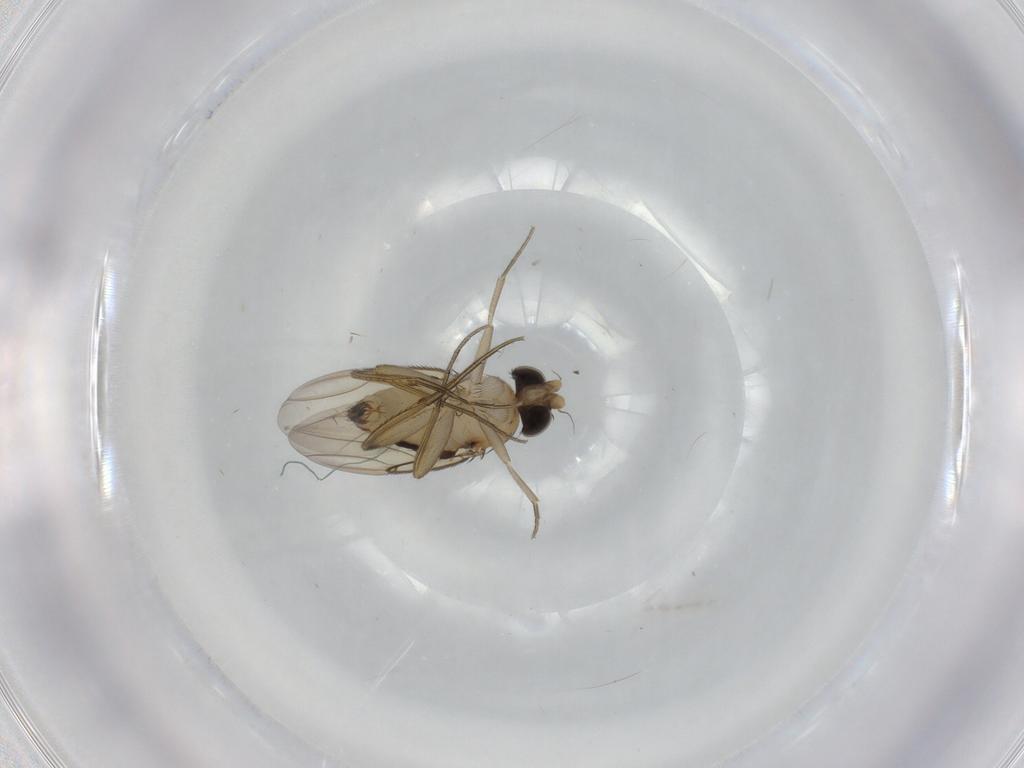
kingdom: Animalia
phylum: Arthropoda
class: Insecta
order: Diptera
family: Phoridae
